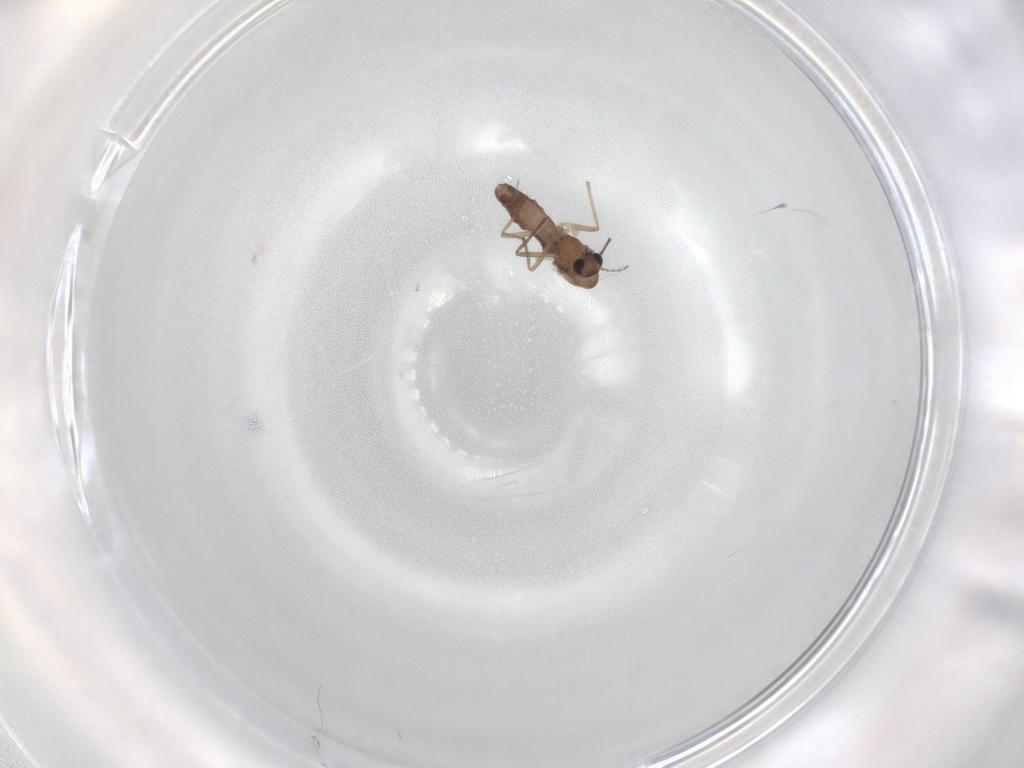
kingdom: Animalia
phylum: Arthropoda
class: Insecta
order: Diptera
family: Chironomidae
